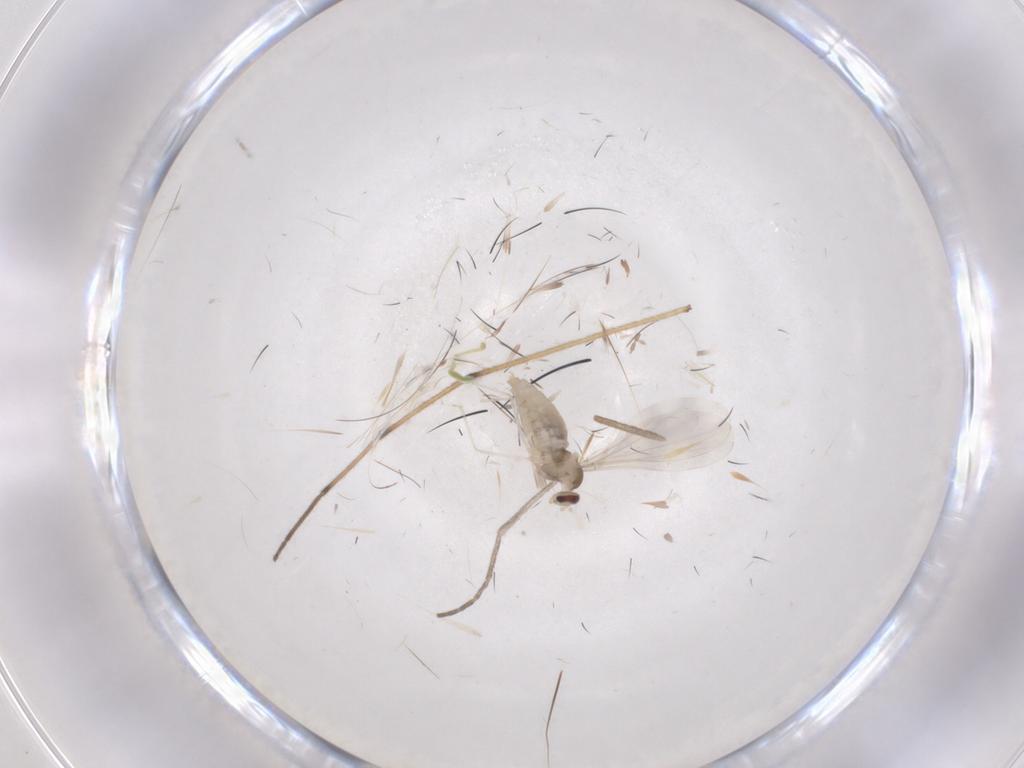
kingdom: Animalia
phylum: Arthropoda
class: Insecta
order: Diptera
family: Cecidomyiidae
